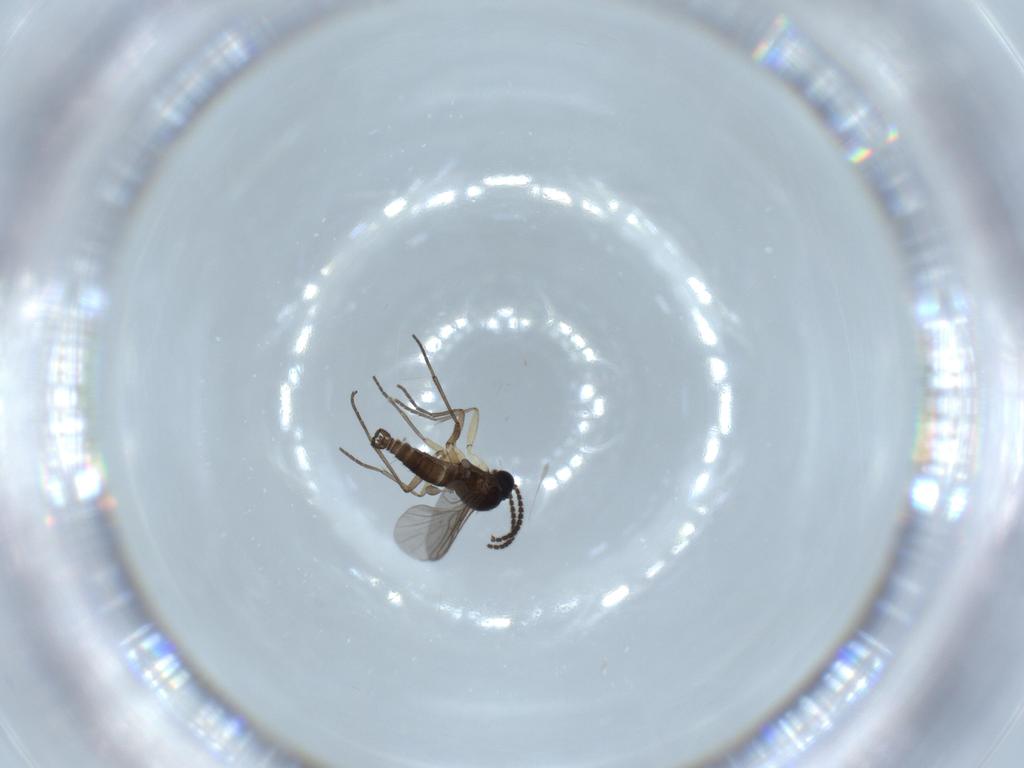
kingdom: Animalia
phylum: Arthropoda
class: Insecta
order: Diptera
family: Sciaridae
